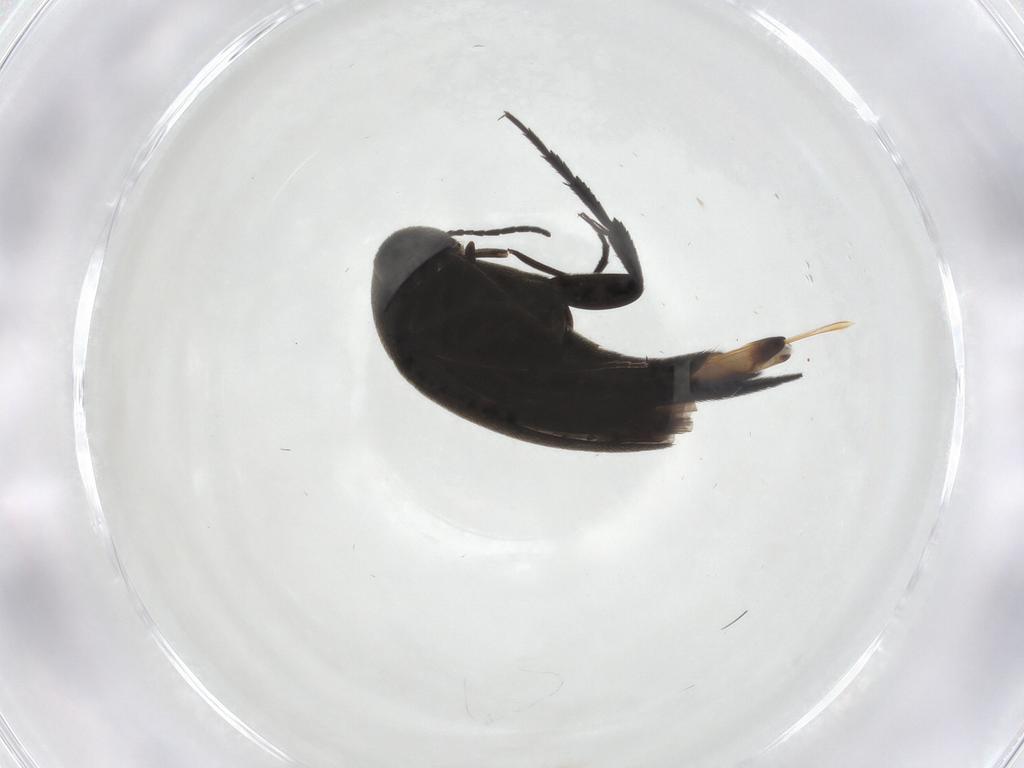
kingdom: Animalia
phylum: Arthropoda
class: Insecta
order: Coleoptera
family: Mordellidae
